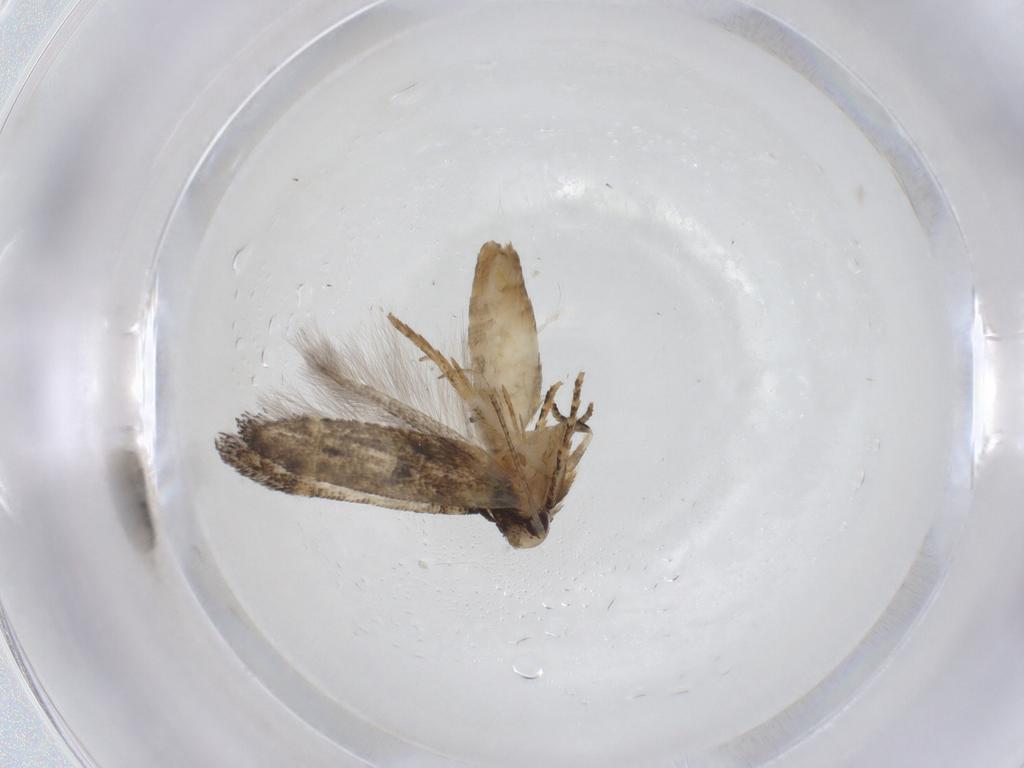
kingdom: Animalia
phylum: Arthropoda
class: Insecta
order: Lepidoptera
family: Gelechiidae
